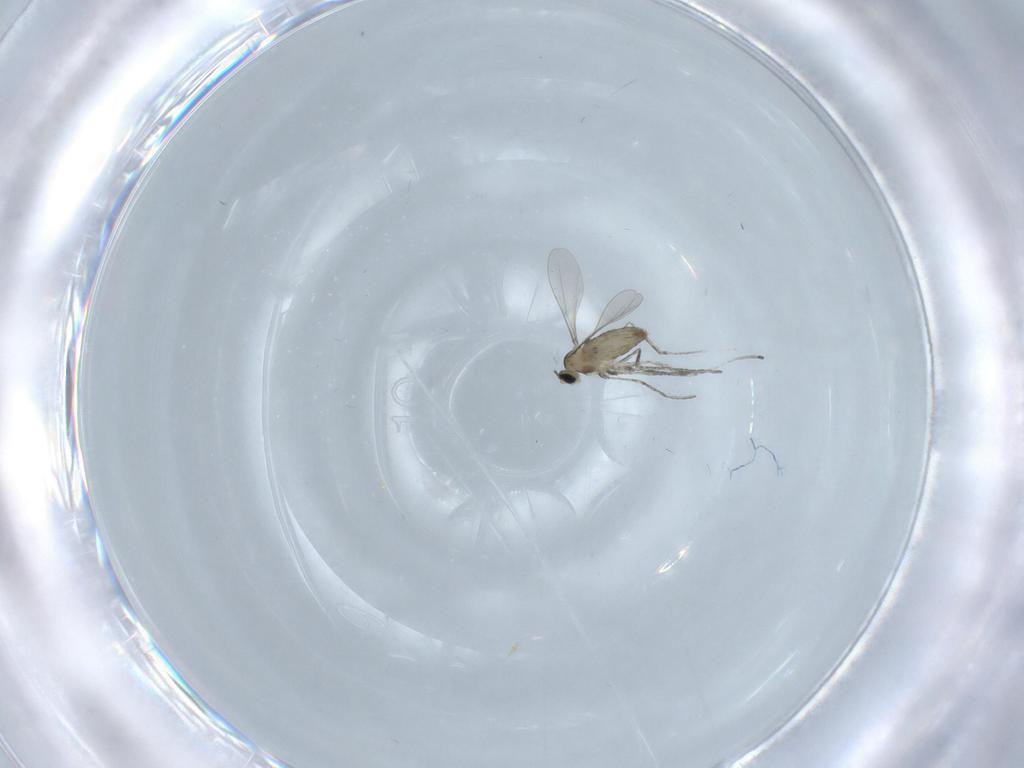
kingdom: Animalia
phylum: Arthropoda
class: Insecta
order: Diptera
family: Cecidomyiidae
